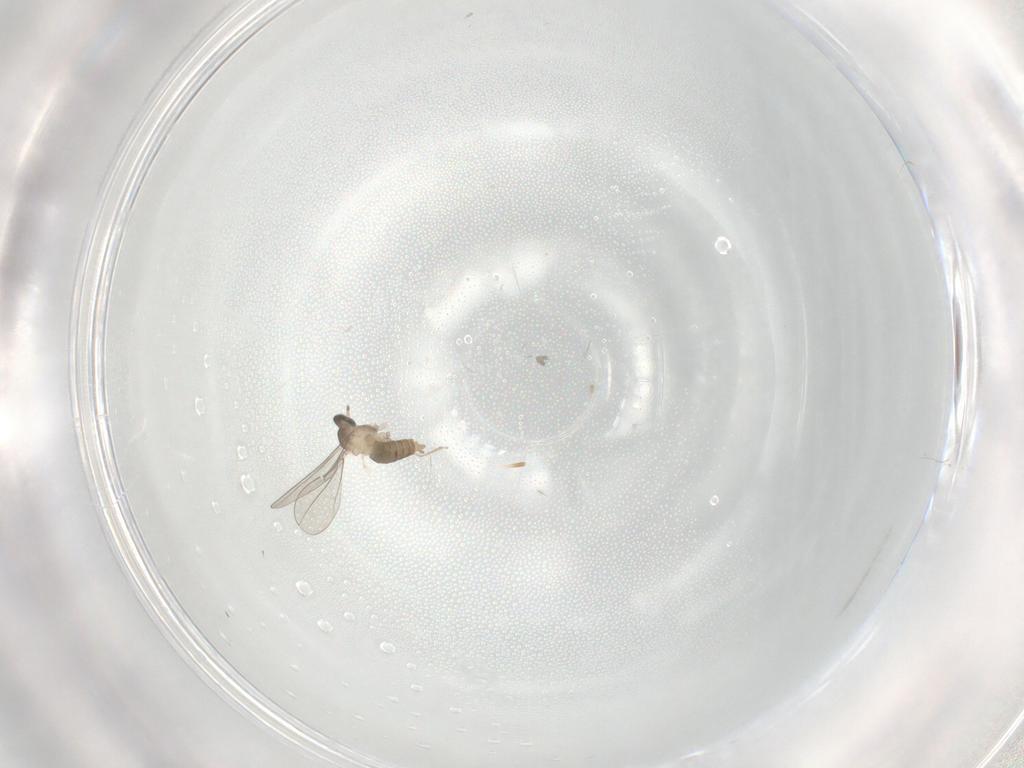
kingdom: Animalia
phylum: Arthropoda
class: Insecta
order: Diptera
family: Cecidomyiidae
